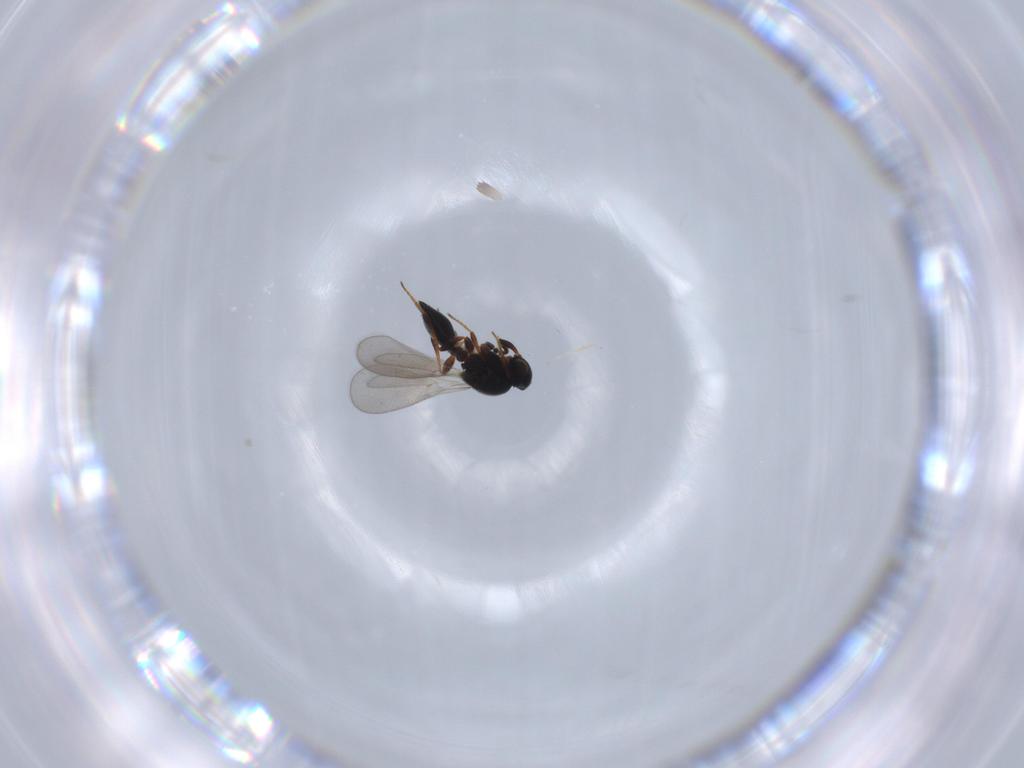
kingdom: Animalia
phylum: Arthropoda
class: Insecta
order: Hymenoptera
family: Platygastridae
